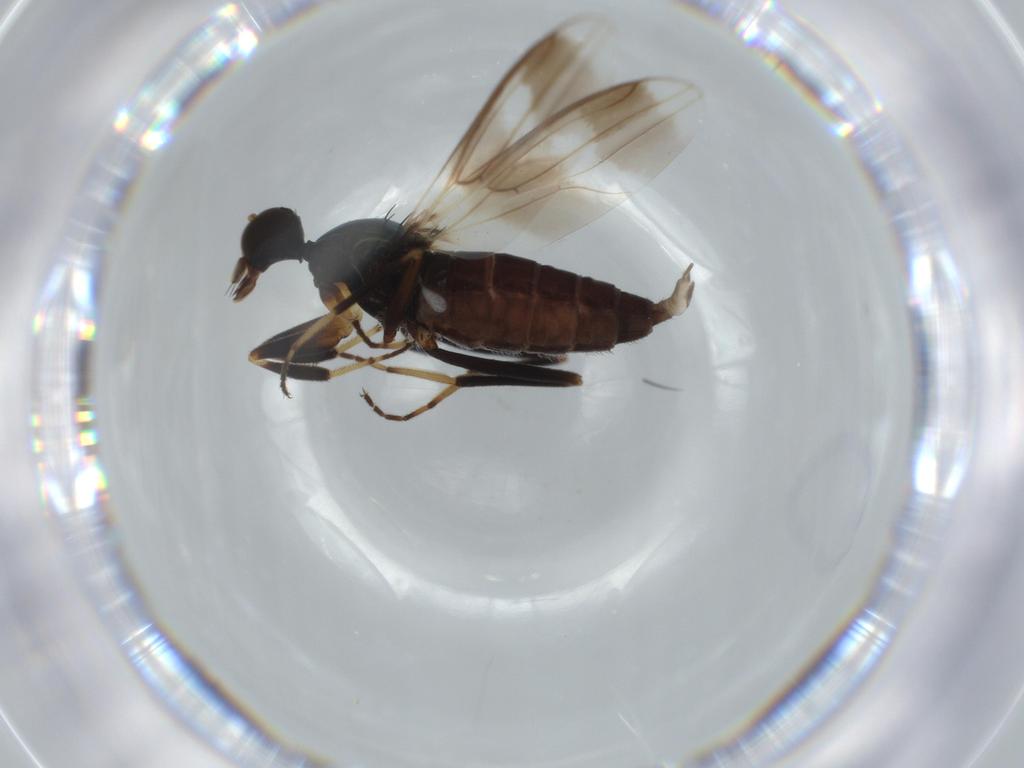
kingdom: Animalia
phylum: Arthropoda
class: Insecta
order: Diptera
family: Hybotidae
